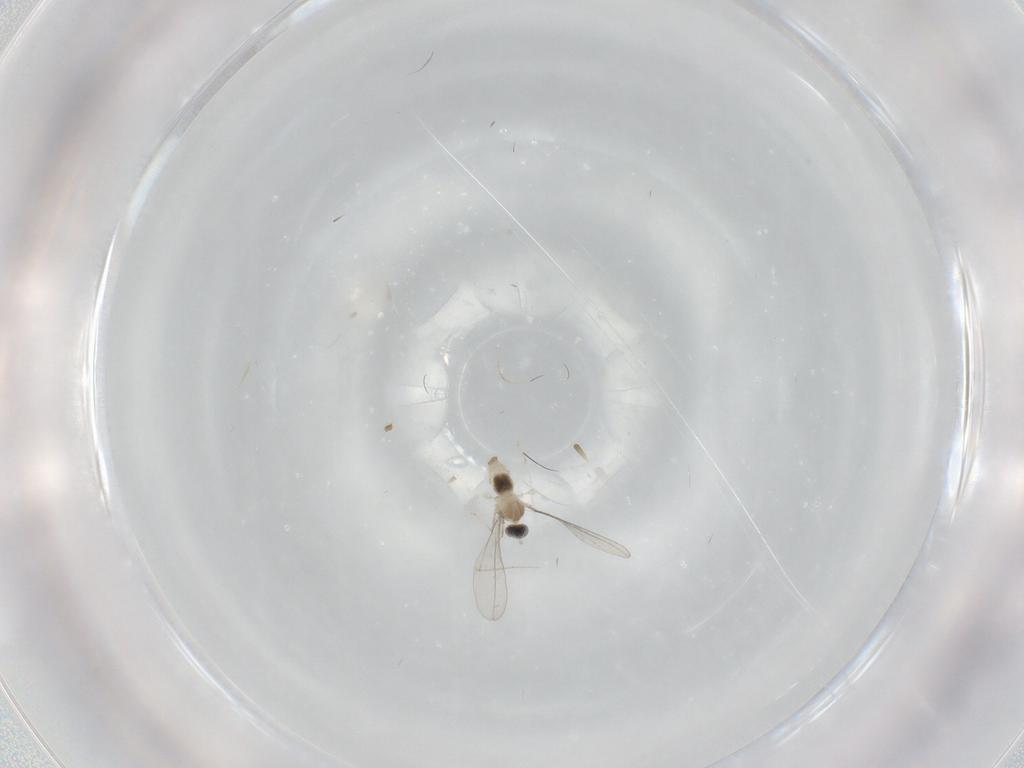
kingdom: Animalia
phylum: Arthropoda
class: Insecta
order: Diptera
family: Cecidomyiidae
